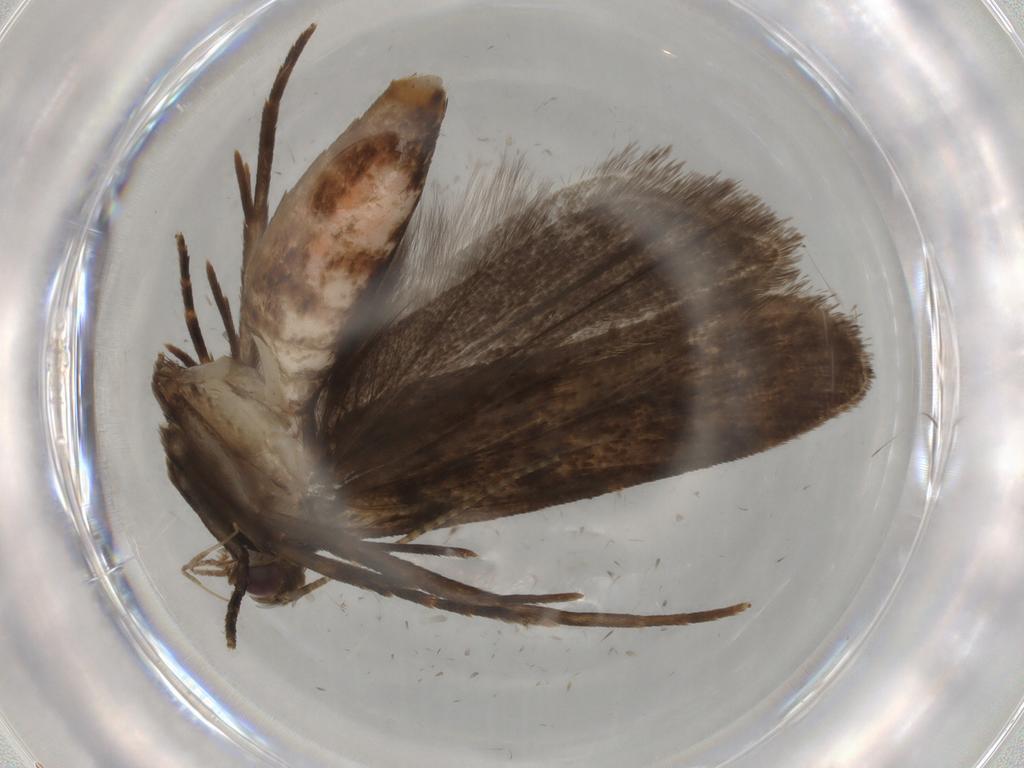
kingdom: Animalia
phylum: Arthropoda
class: Insecta
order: Lepidoptera
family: Gelechiidae
